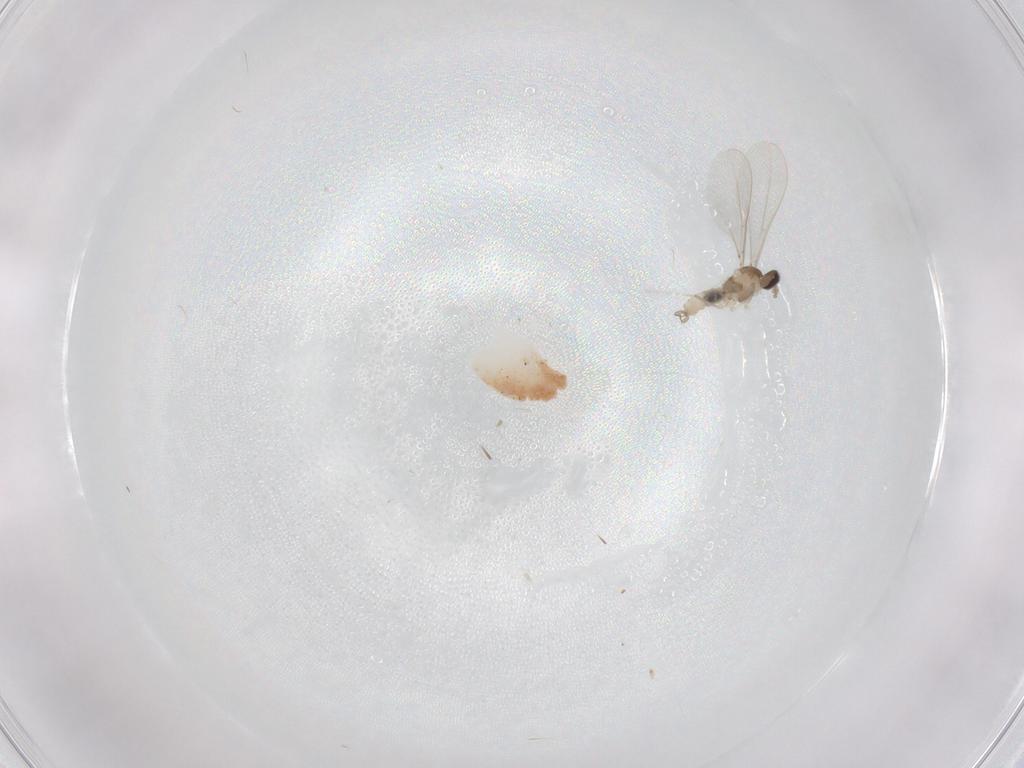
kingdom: Animalia
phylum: Arthropoda
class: Insecta
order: Diptera
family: Cecidomyiidae
